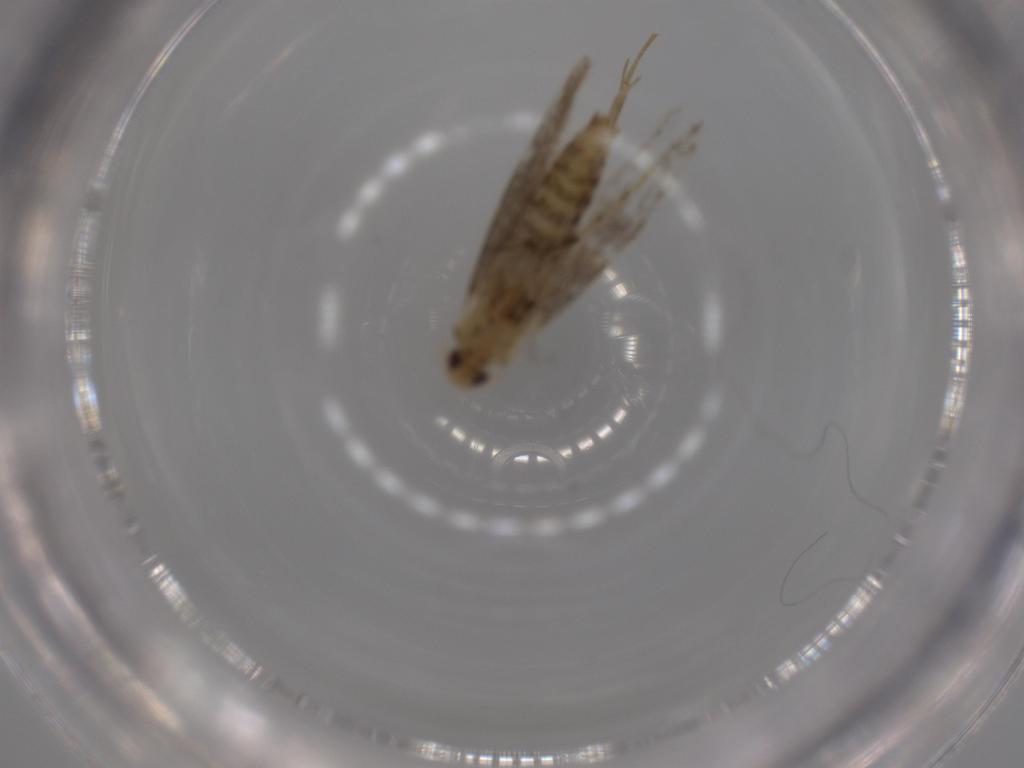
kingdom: Animalia
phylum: Arthropoda
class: Insecta
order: Lepidoptera
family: Gracillariidae
